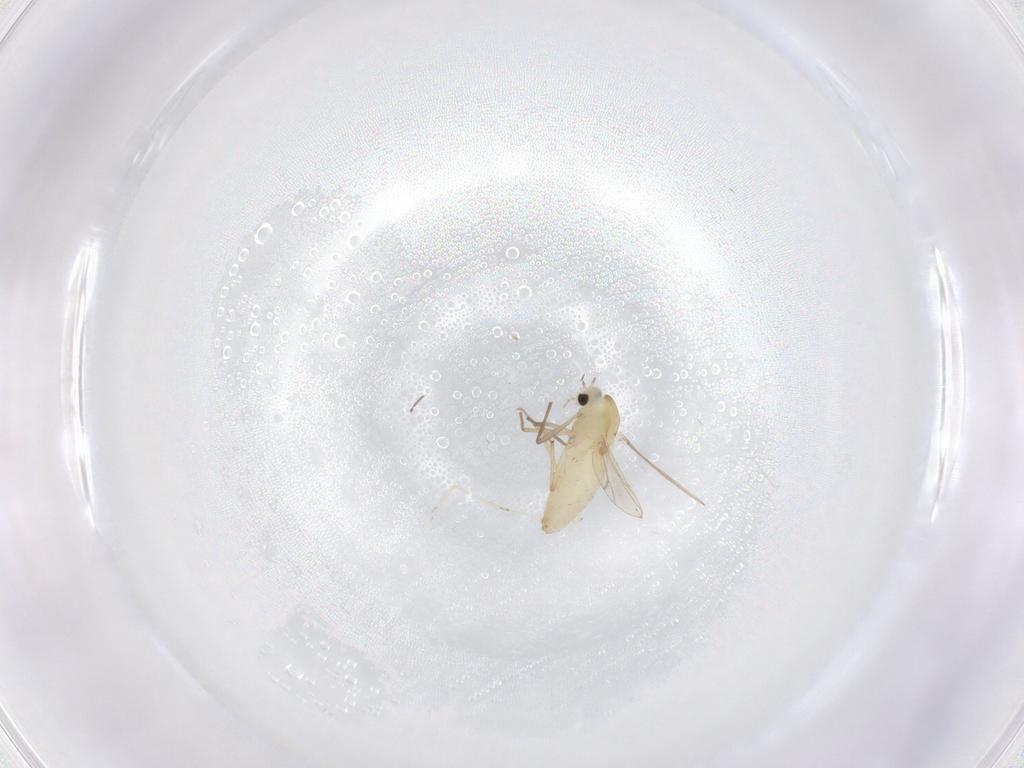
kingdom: Animalia
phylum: Arthropoda
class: Insecta
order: Diptera
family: Chironomidae
